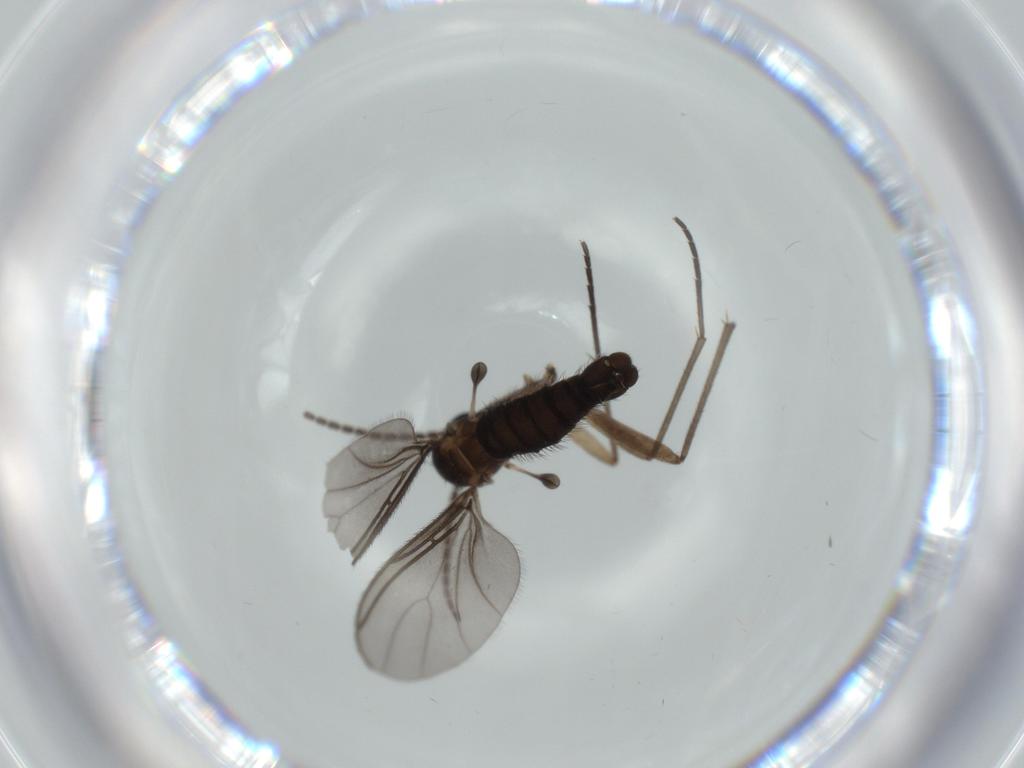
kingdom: Animalia
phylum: Arthropoda
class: Insecta
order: Diptera
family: Sciaridae
